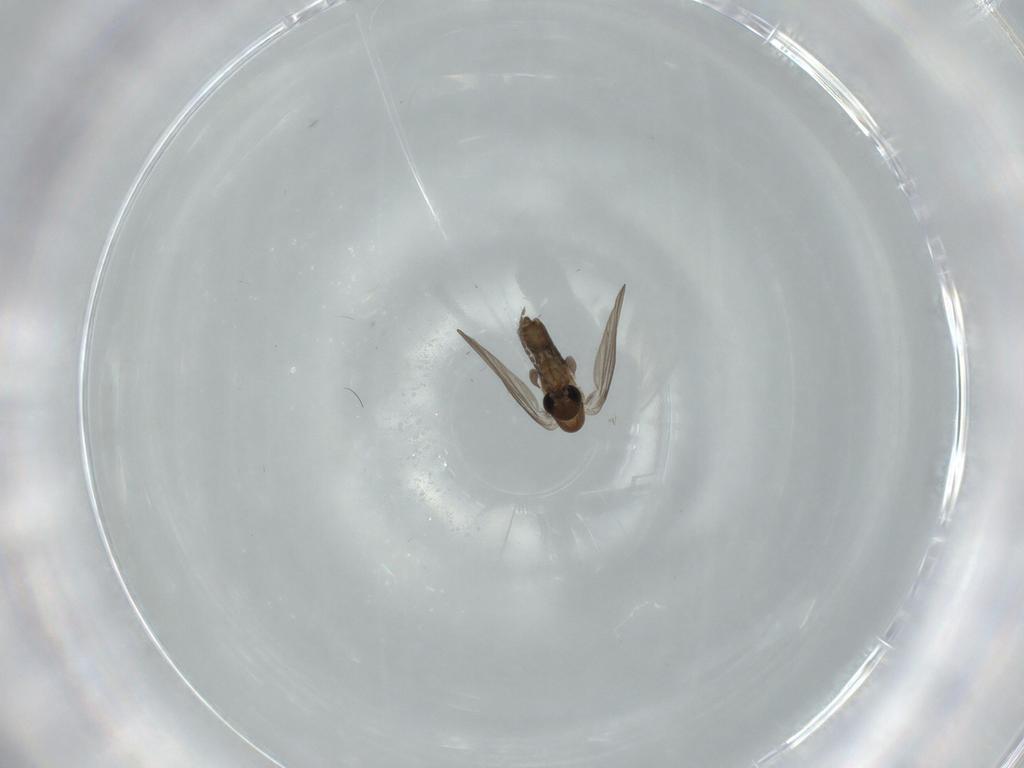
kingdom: Animalia
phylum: Arthropoda
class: Insecta
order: Diptera
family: Psychodidae
